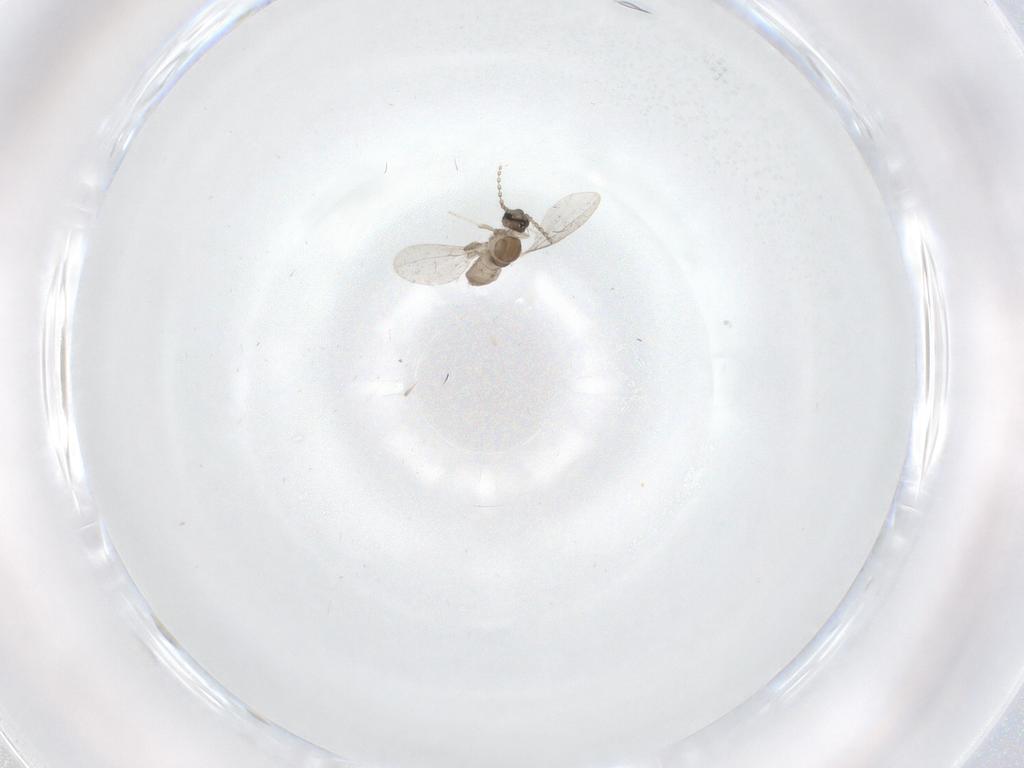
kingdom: Animalia
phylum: Arthropoda
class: Insecta
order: Diptera
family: Cecidomyiidae
